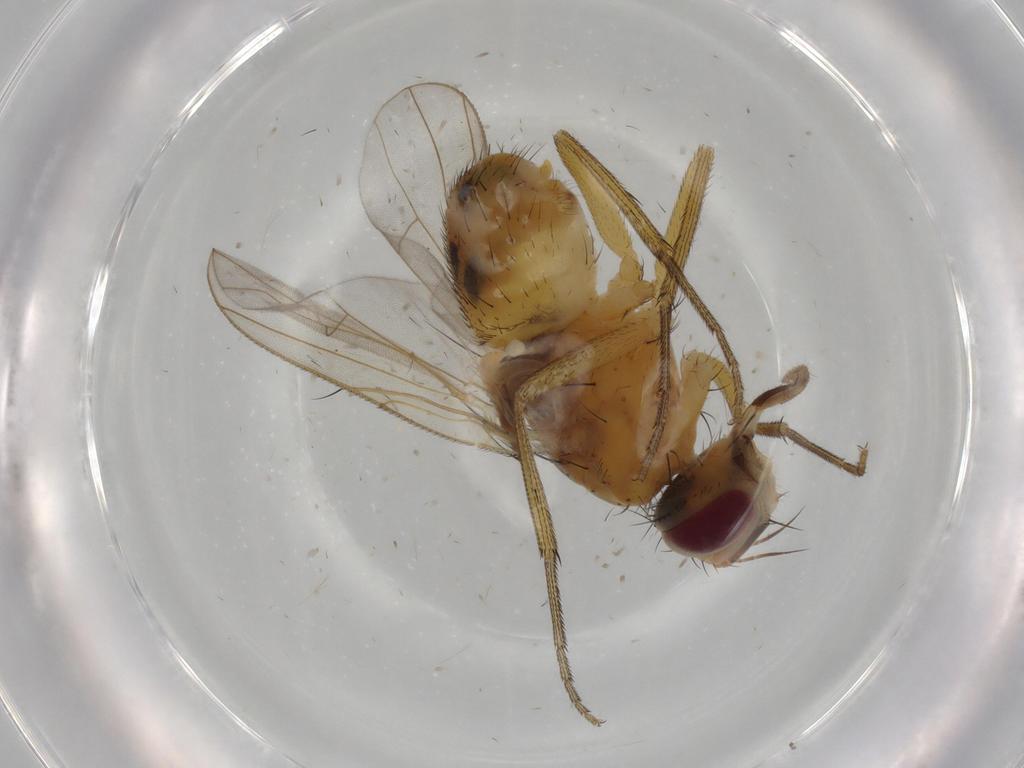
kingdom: Animalia
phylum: Arthropoda
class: Insecta
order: Diptera
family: Muscidae
